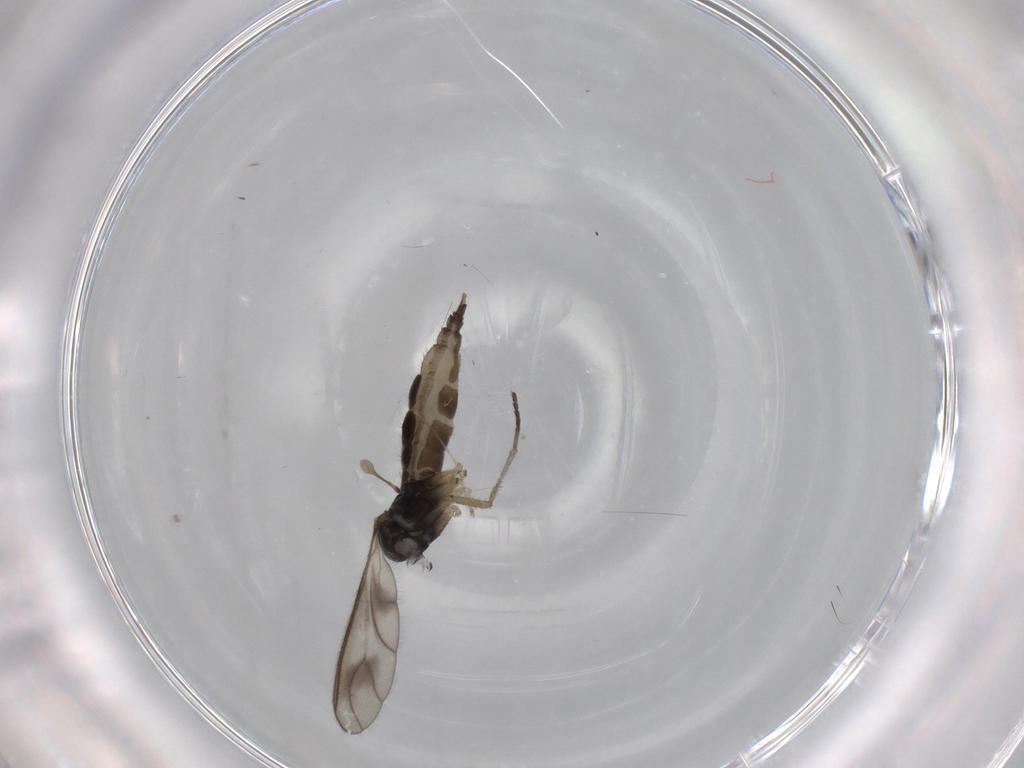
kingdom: Animalia
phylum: Arthropoda
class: Insecta
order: Diptera
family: Sciaridae
